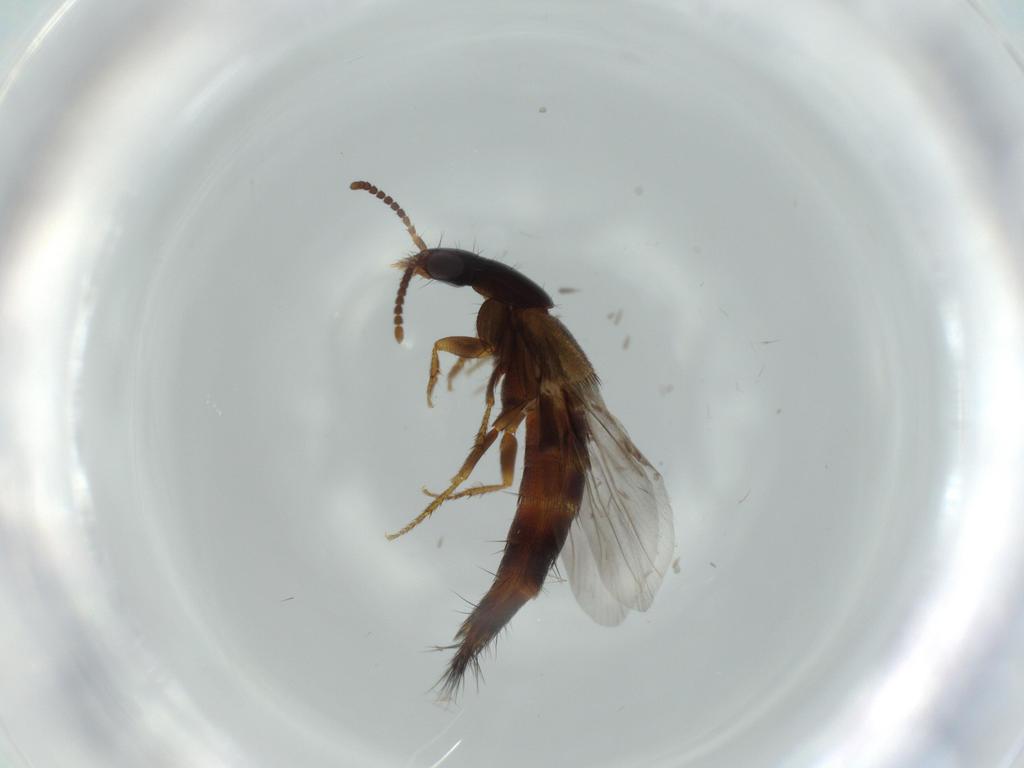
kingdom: Animalia
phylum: Arthropoda
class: Insecta
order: Coleoptera
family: Staphylinidae
